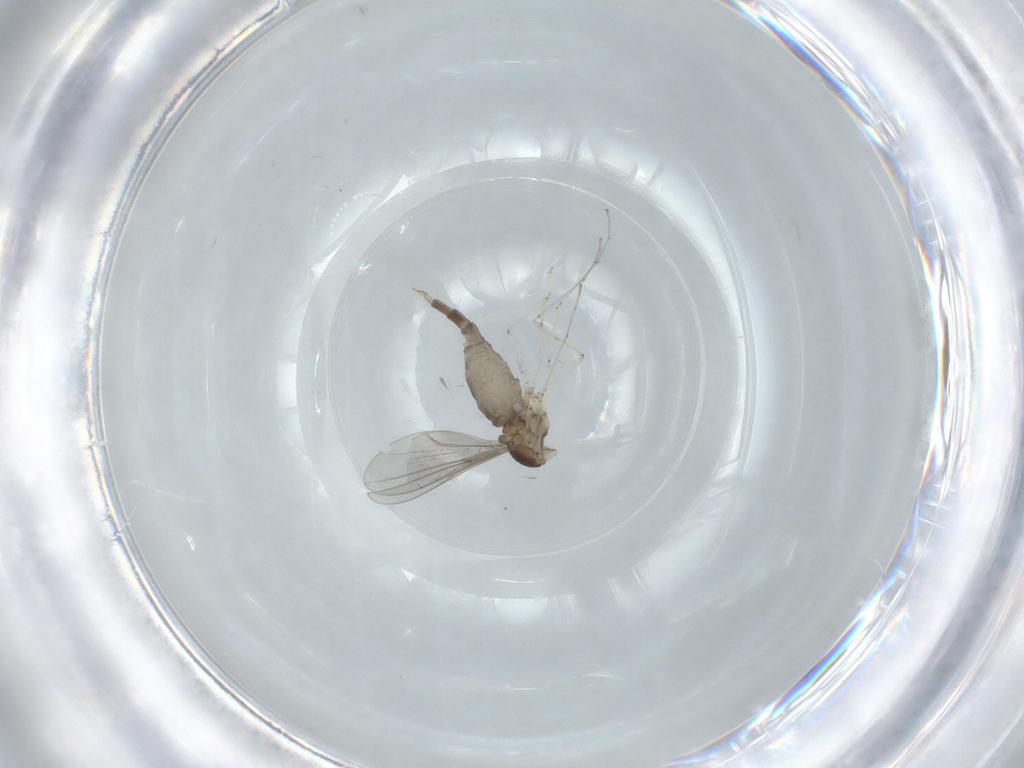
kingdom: Animalia
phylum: Arthropoda
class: Insecta
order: Diptera
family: Cecidomyiidae
